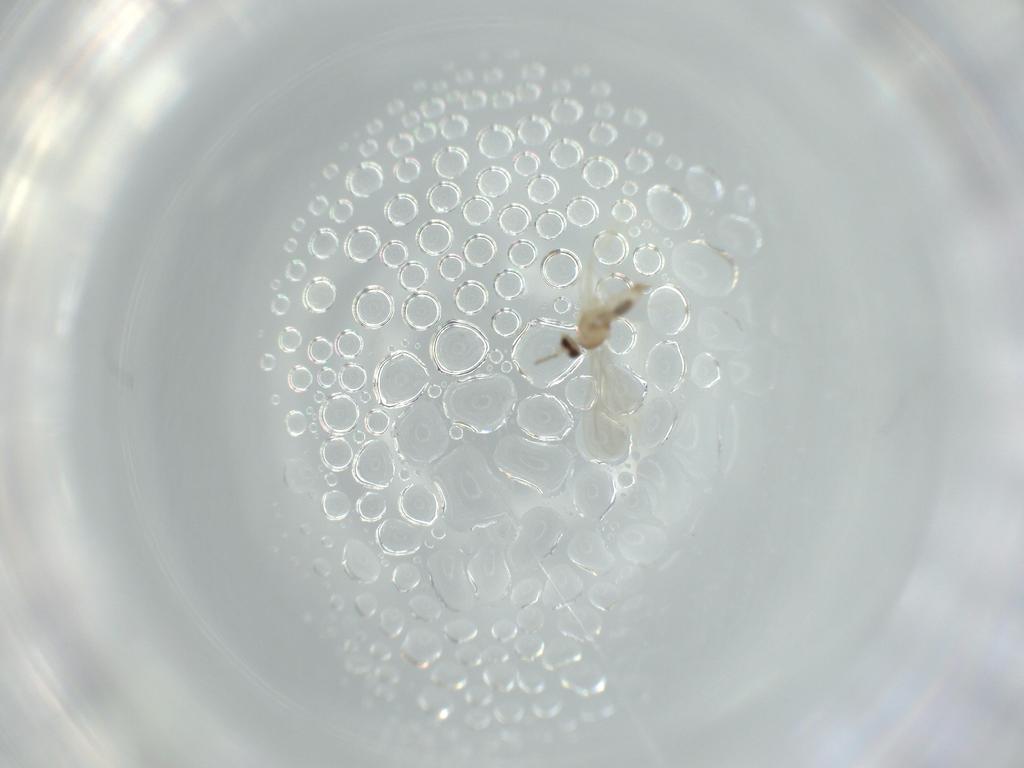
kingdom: Animalia
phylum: Arthropoda
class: Insecta
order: Diptera
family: Cecidomyiidae
